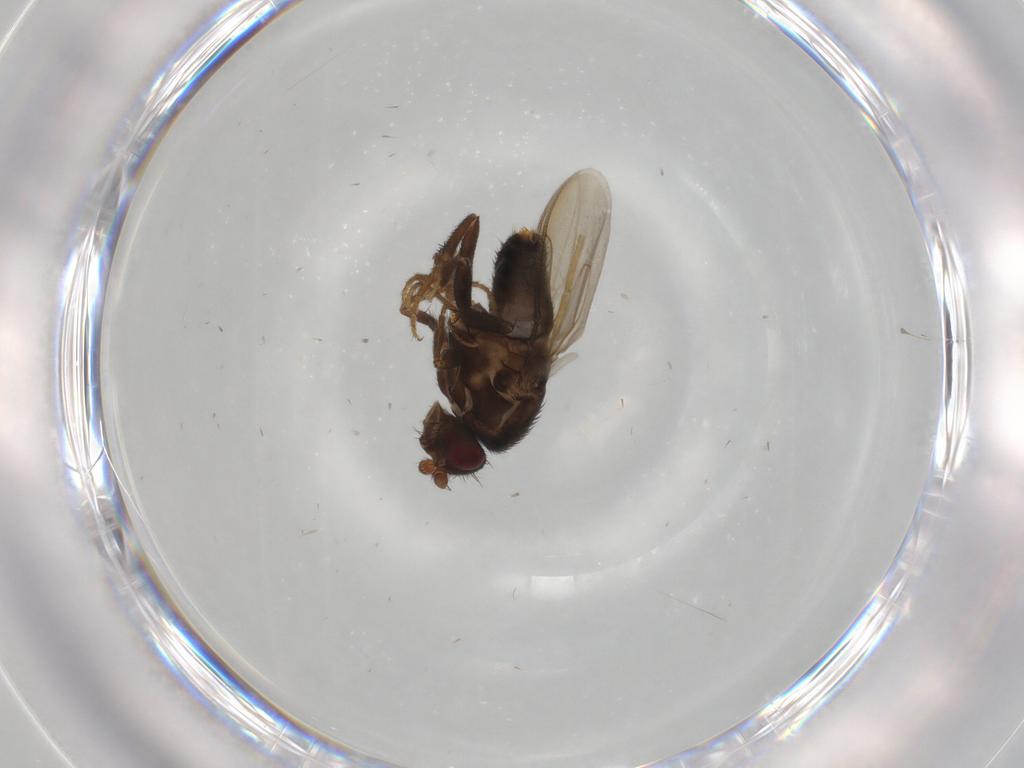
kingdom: Animalia
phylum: Arthropoda
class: Insecta
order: Diptera
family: Sphaeroceridae
